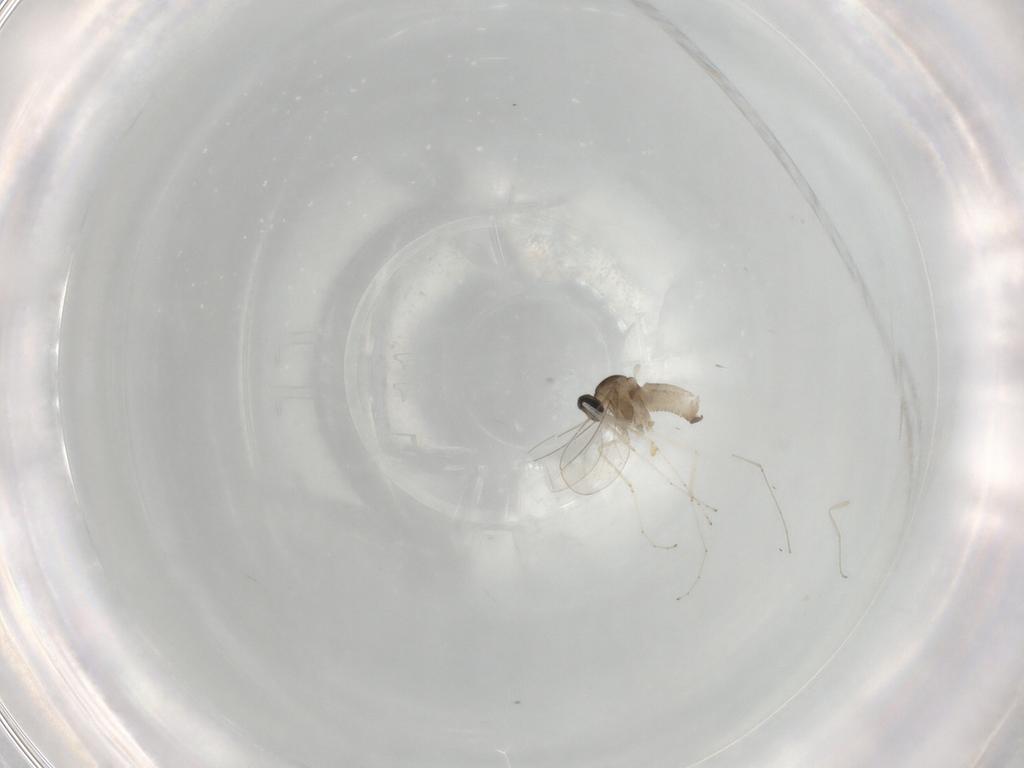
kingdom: Animalia
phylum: Arthropoda
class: Insecta
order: Diptera
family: Cecidomyiidae
